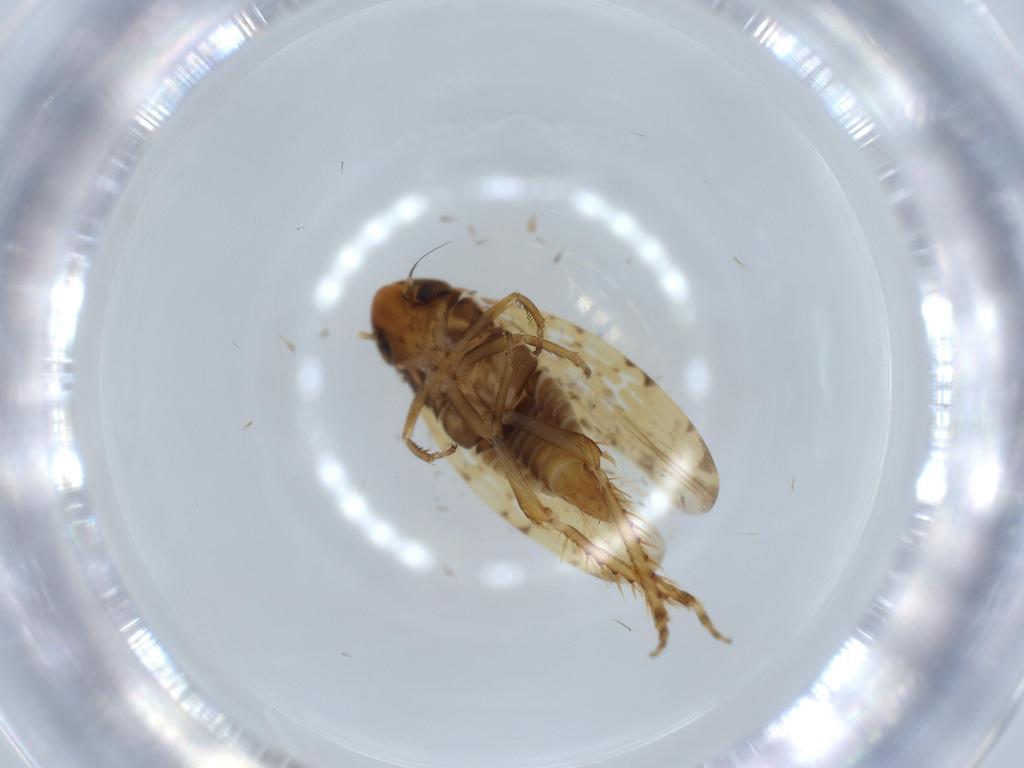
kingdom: Animalia
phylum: Arthropoda
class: Insecta
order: Hemiptera
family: Cicadellidae
